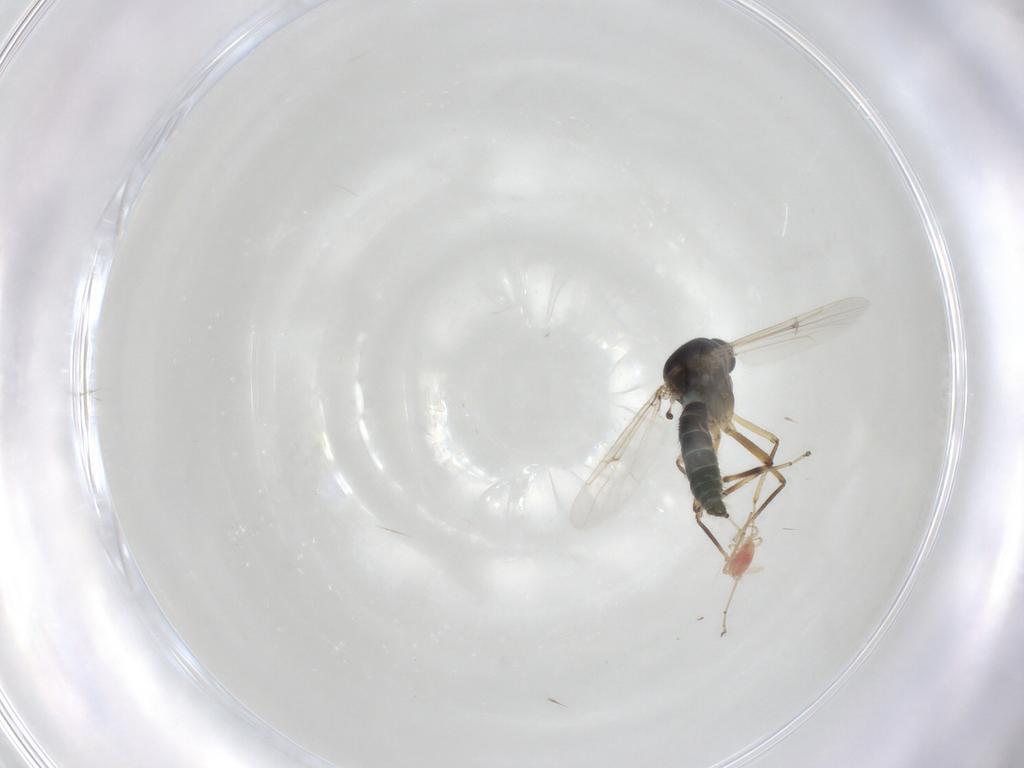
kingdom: Animalia
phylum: Arthropoda
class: Insecta
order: Diptera
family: Ceratopogonidae
